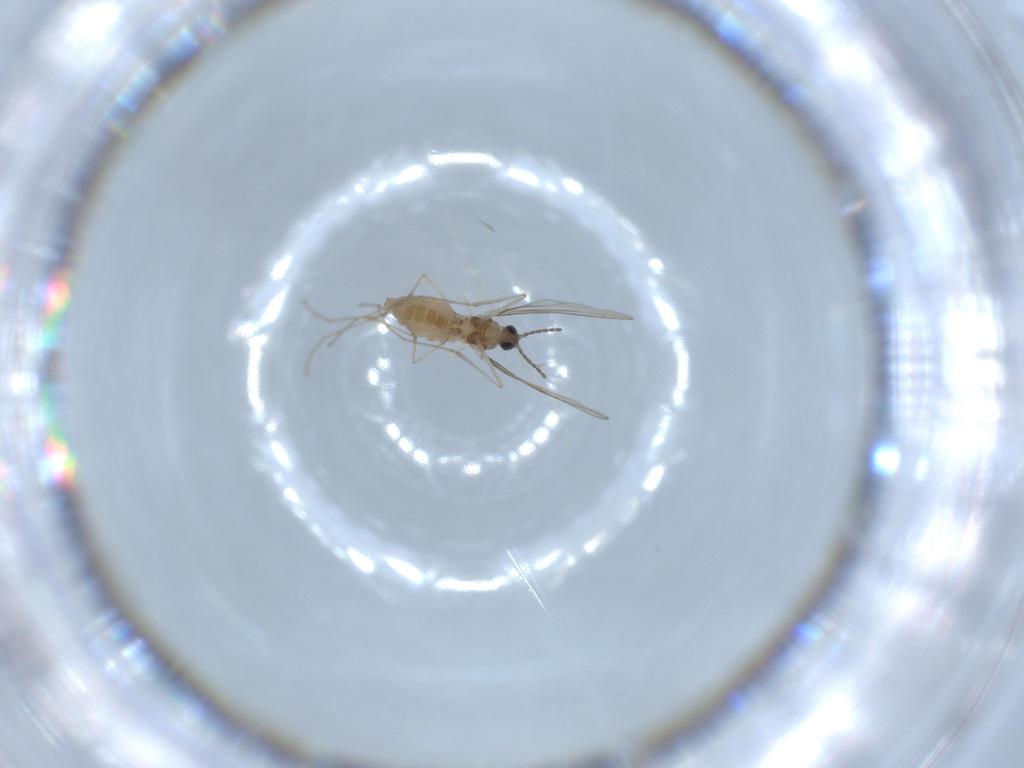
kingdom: Animalia
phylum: Arthropoda
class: Insecta
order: Diptera
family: Cecidomyiidae
